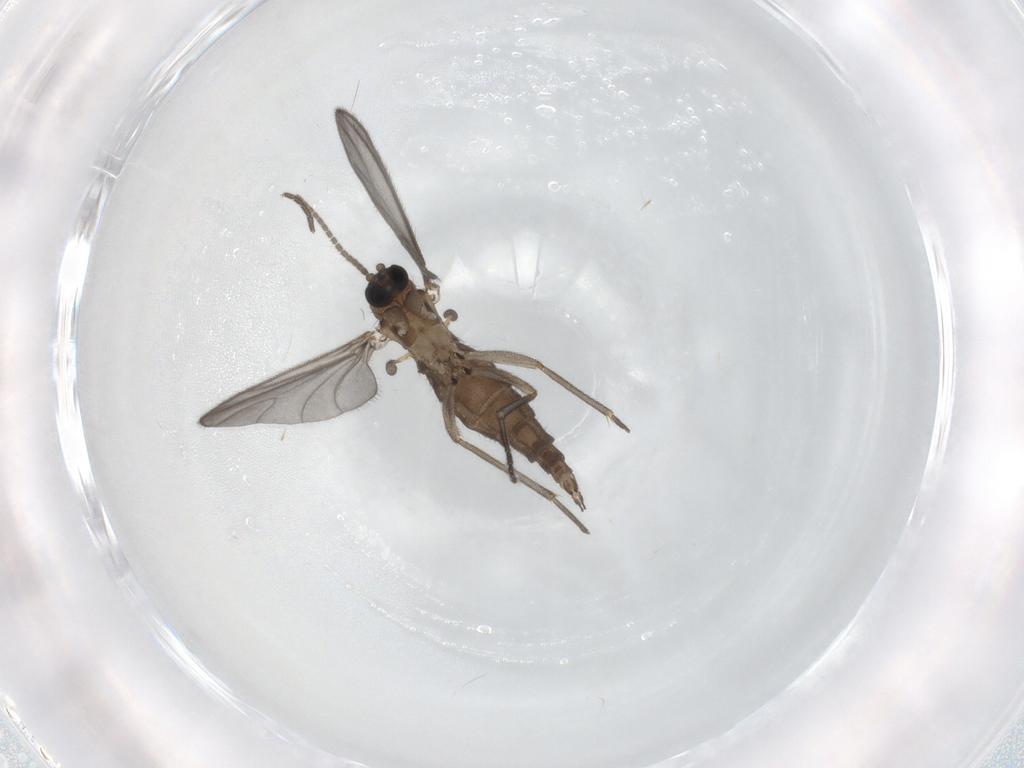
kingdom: Animalia
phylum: Arthropoda
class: Insecta
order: Diptera
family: Sciaridae
